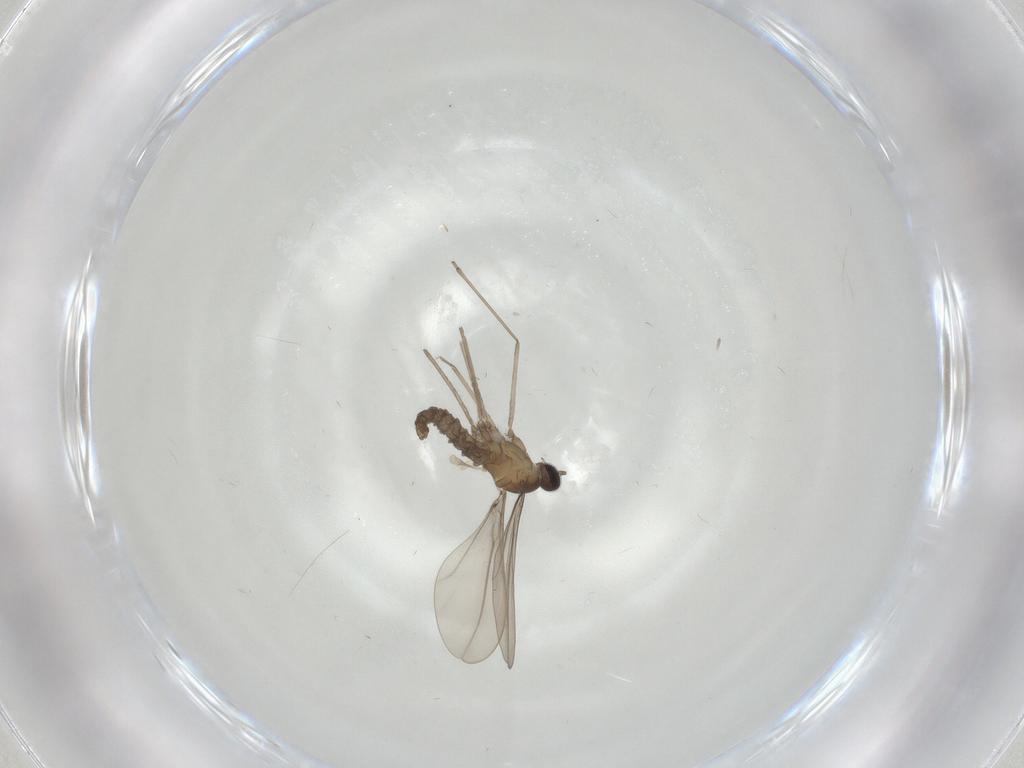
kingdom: Animalia
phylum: Arthropoda
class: Insecta
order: Diptera
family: Cecidomyiidae
